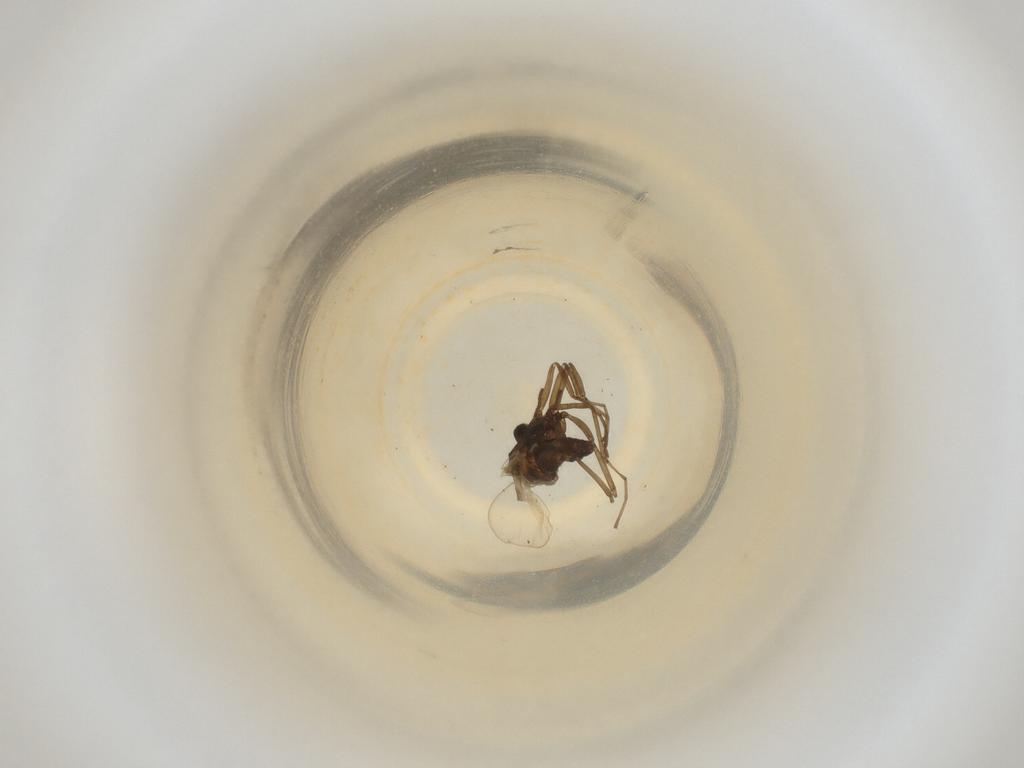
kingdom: Animalia
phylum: Arthropoda
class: Insecta
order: Diptera
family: Cecidomyiidae
